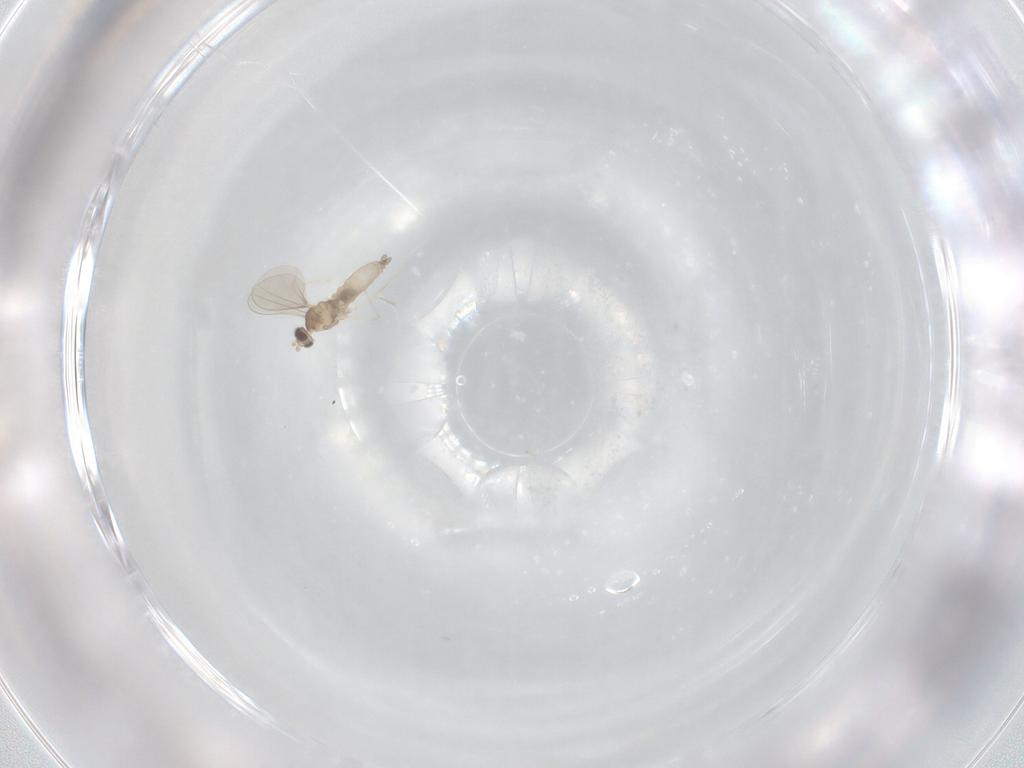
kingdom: Animalia
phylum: Arthropoda
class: Insecta
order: Diptera
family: Cecidomyiidae
